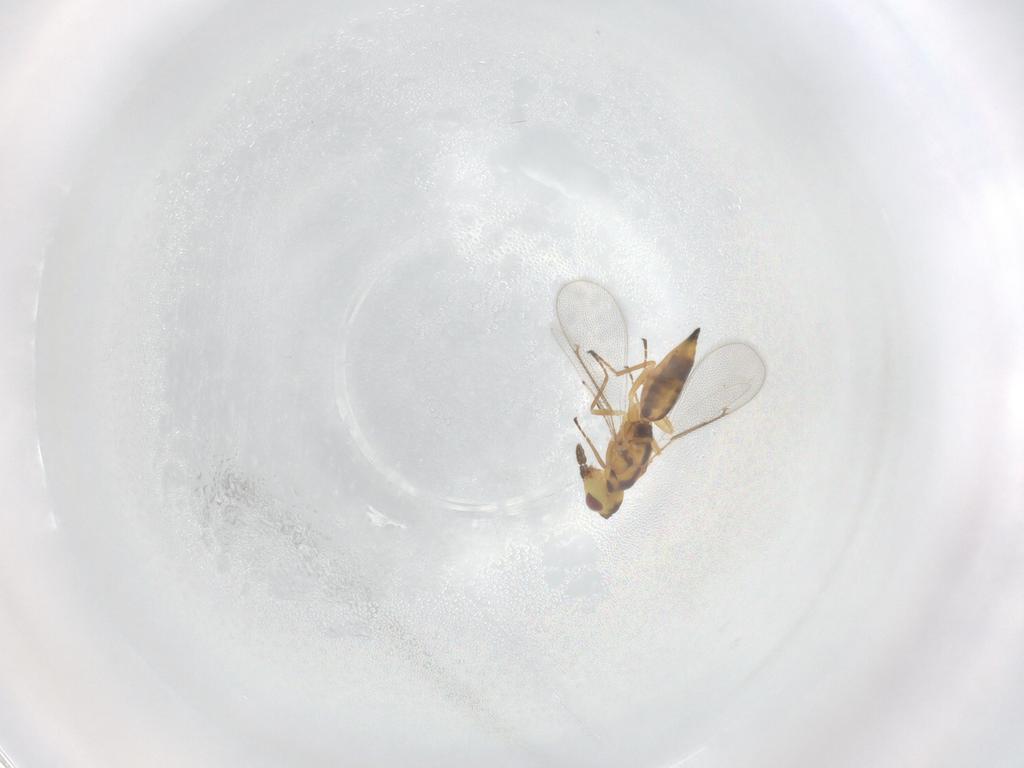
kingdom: Animalia
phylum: Arthropoda
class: Insecta
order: Hymenoptera
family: Eulophidae
